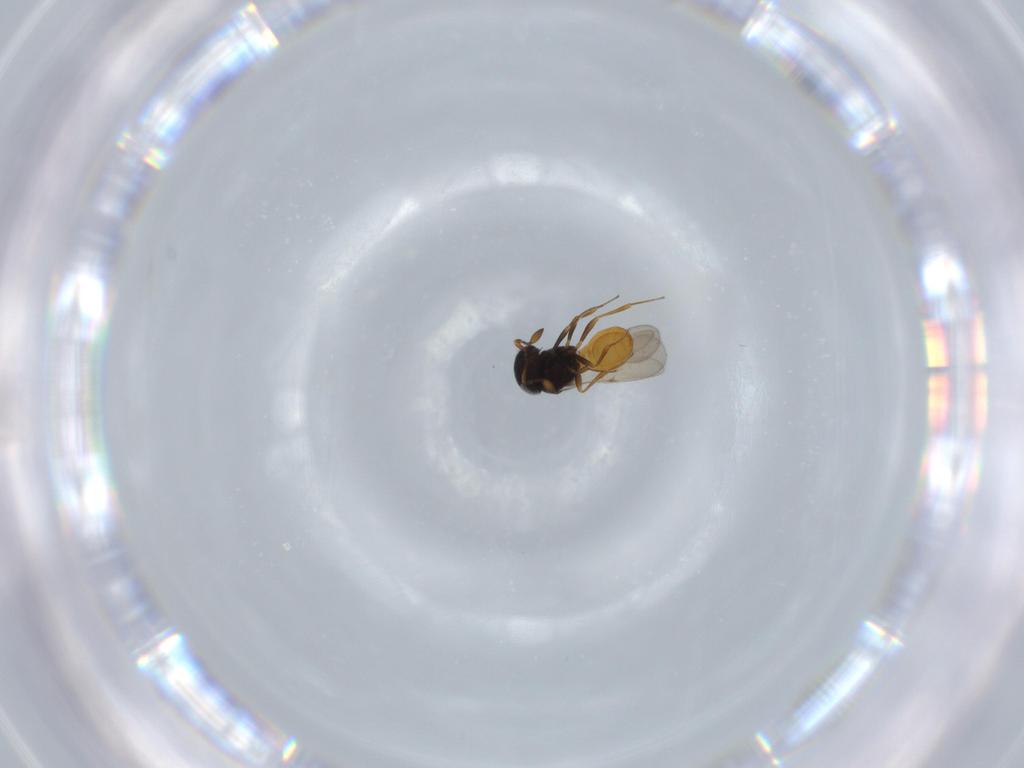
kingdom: Animalia
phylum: Arthropoda
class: Insecta
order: Hymenoptera
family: Scelionidae
